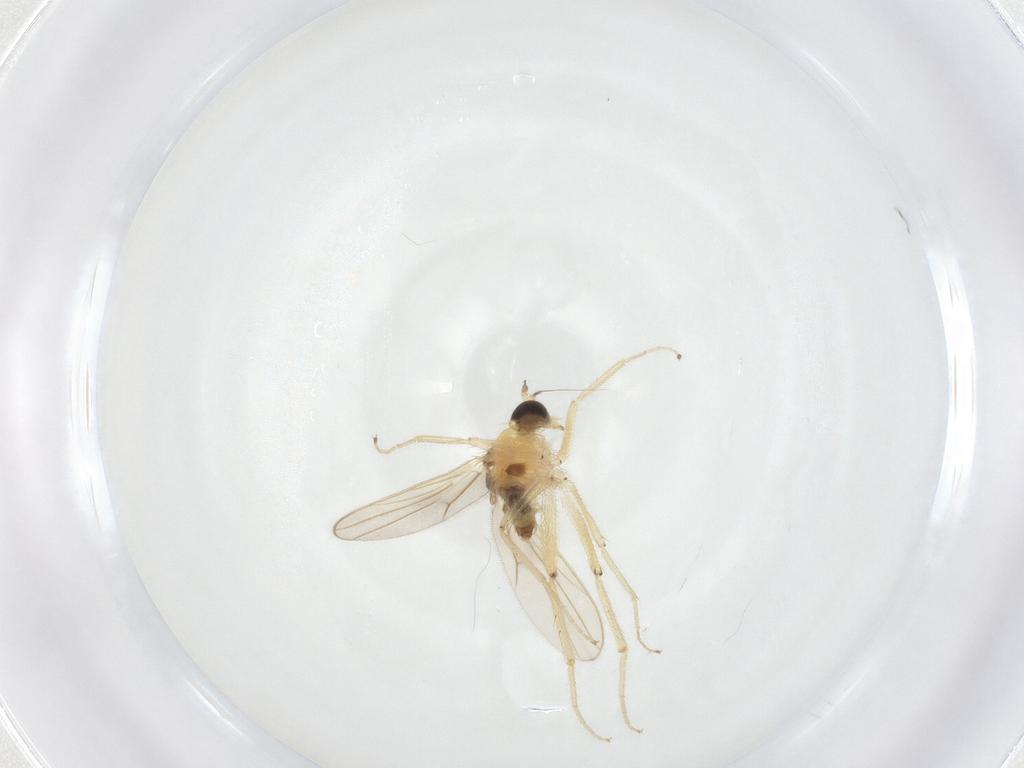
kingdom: Animalia
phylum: Arthropoda
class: Insecta
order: Diptera
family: Hybotidae
